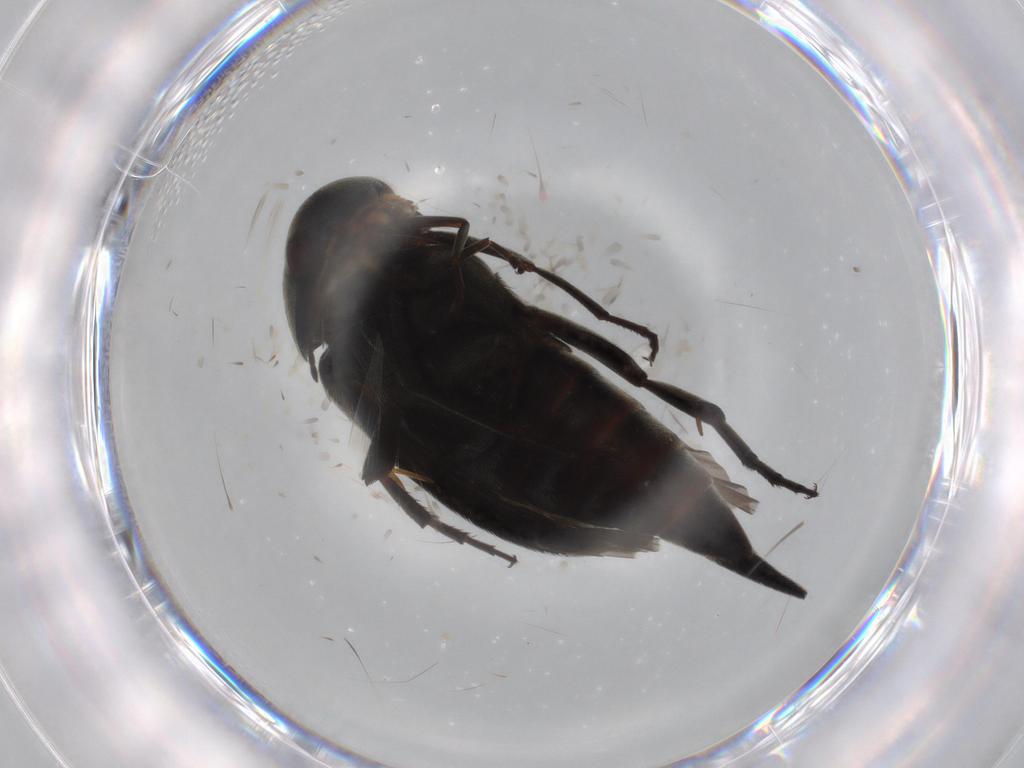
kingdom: Animalia
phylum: Arthropoda
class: Insecta
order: Coleoptera
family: Mordellidae
